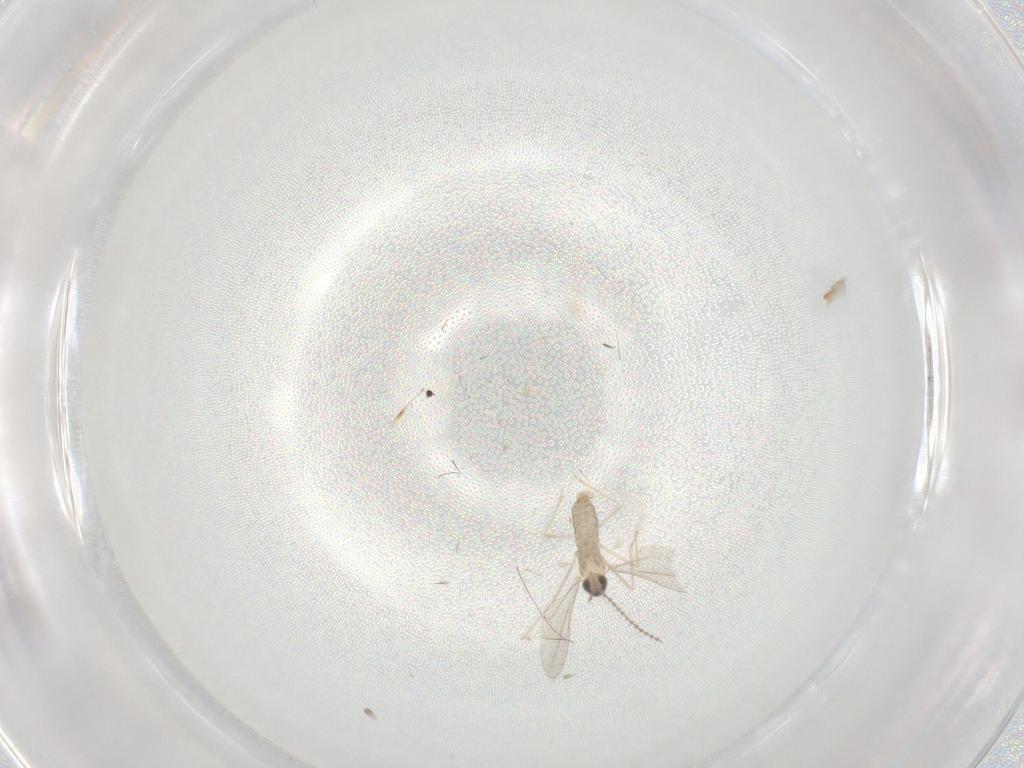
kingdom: Animalia
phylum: Arthropoda
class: Insecta
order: Diptera
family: Cecidomyiidae
